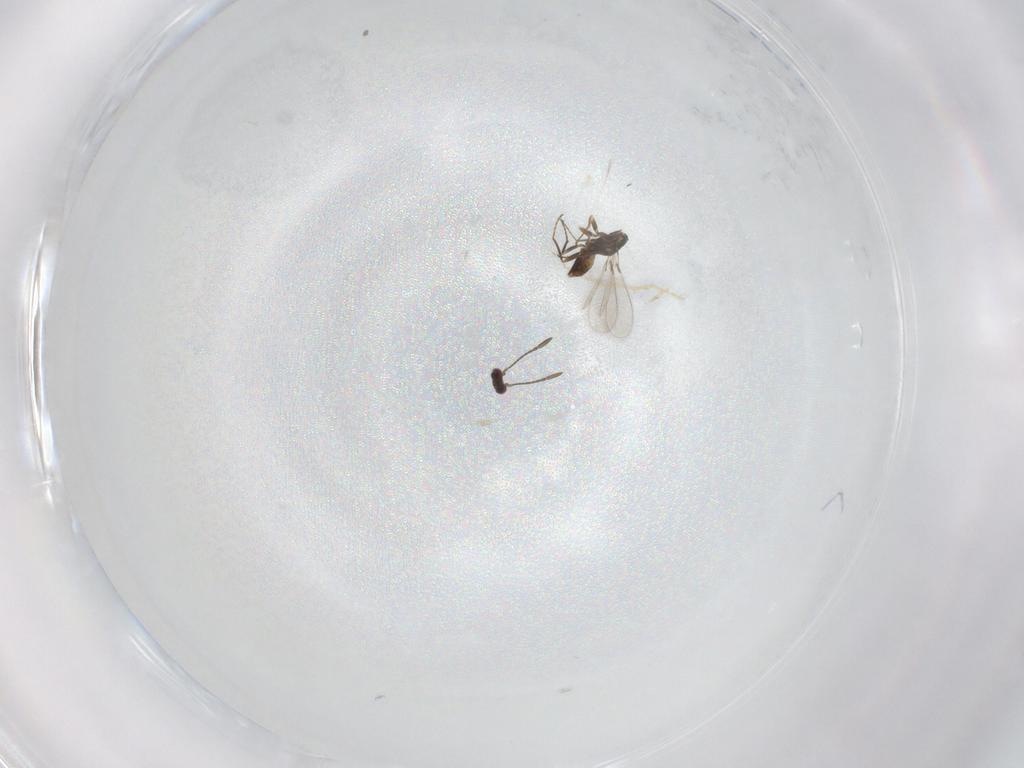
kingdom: Animalia
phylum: Arthropoda
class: Insecta
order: Hymenoptera
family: Mymaridae
